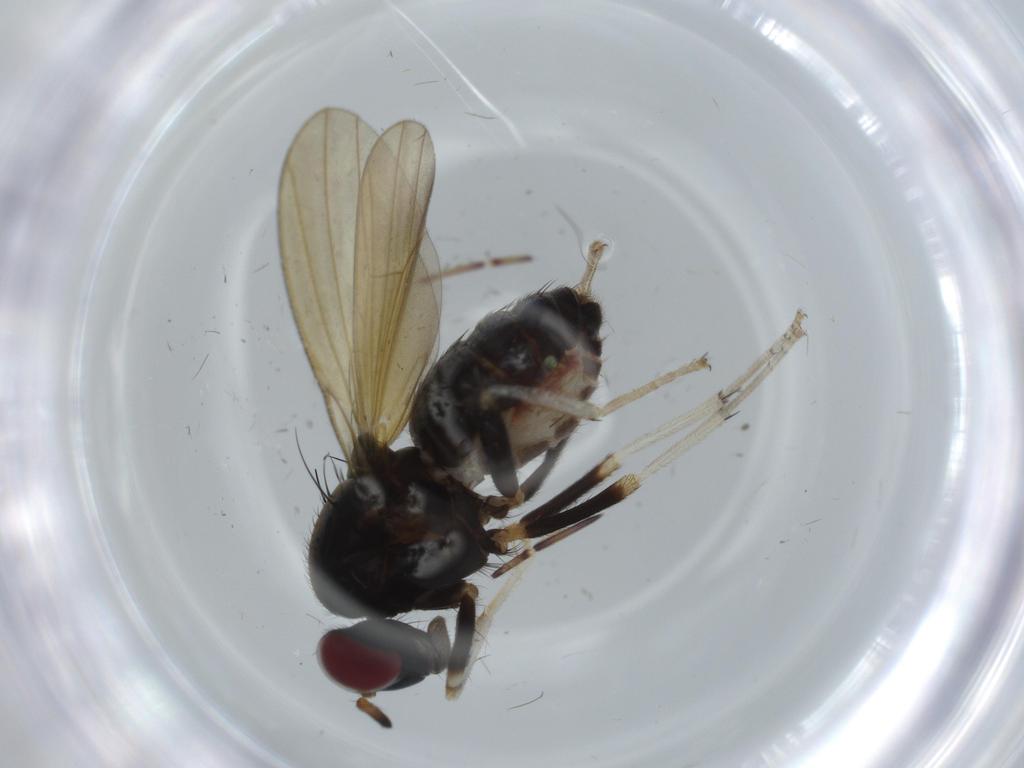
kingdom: Animalia
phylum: Arthropoda
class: Insecta
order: Diptera
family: Cecidomyiidae
